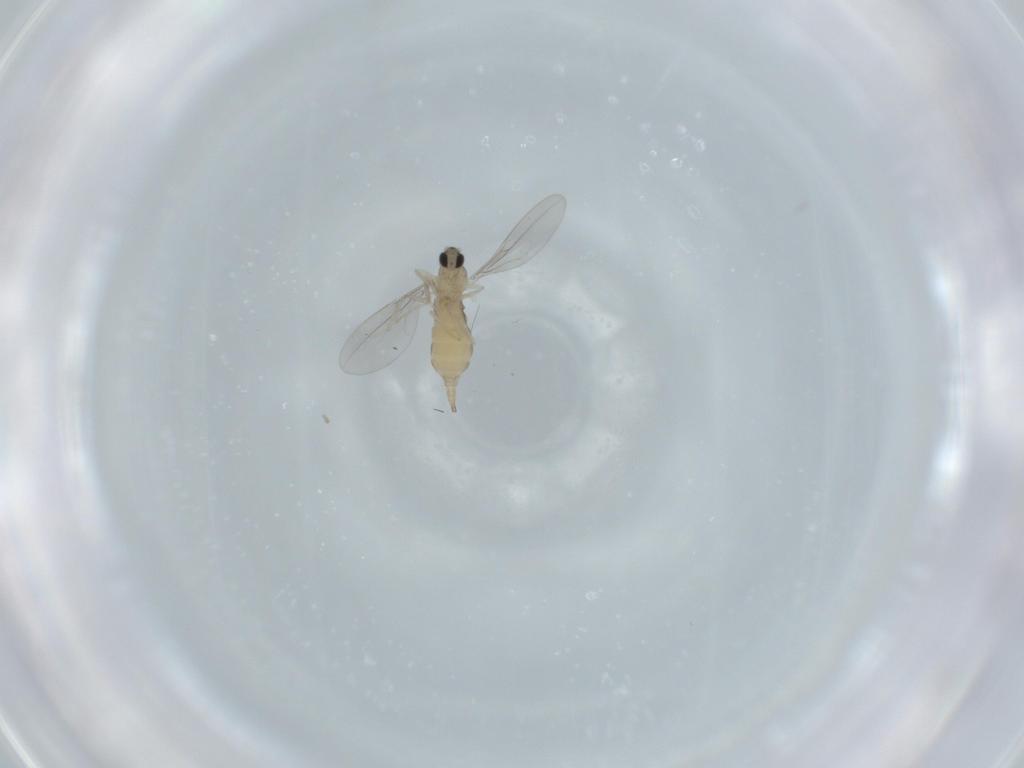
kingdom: Animalia
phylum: Arthropoda
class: Insecta
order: Diptera
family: Cecidomyiidae
